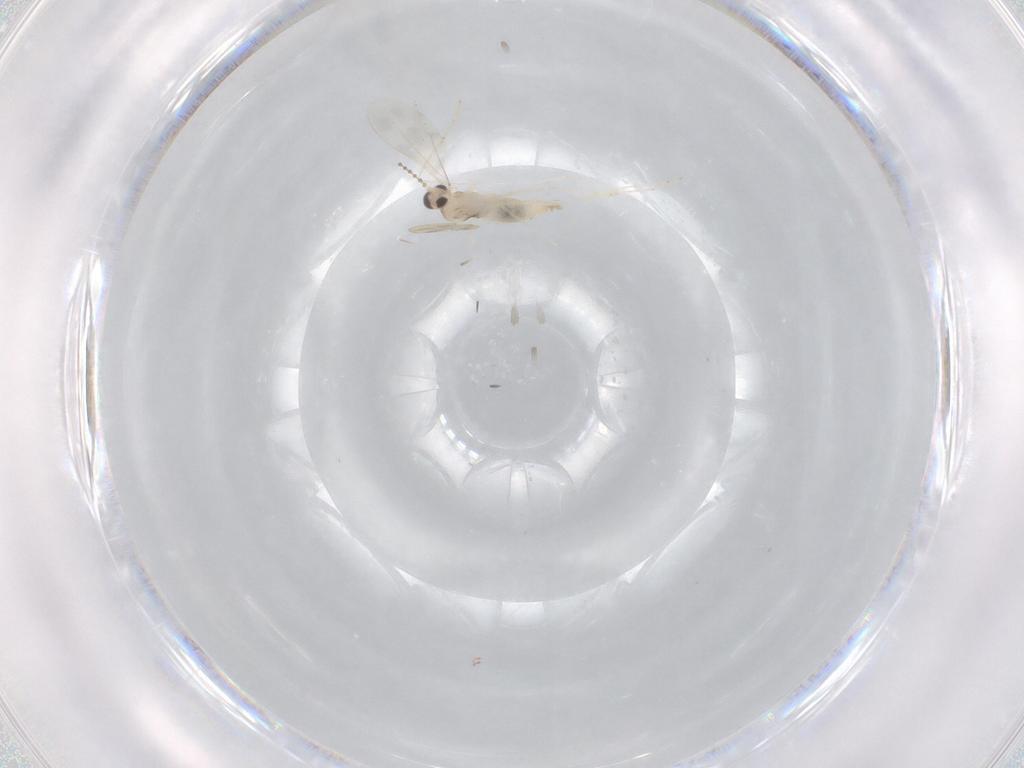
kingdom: Animalia
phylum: Arthropoda
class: Insecta
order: Diptera
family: Cecidomyiidae
